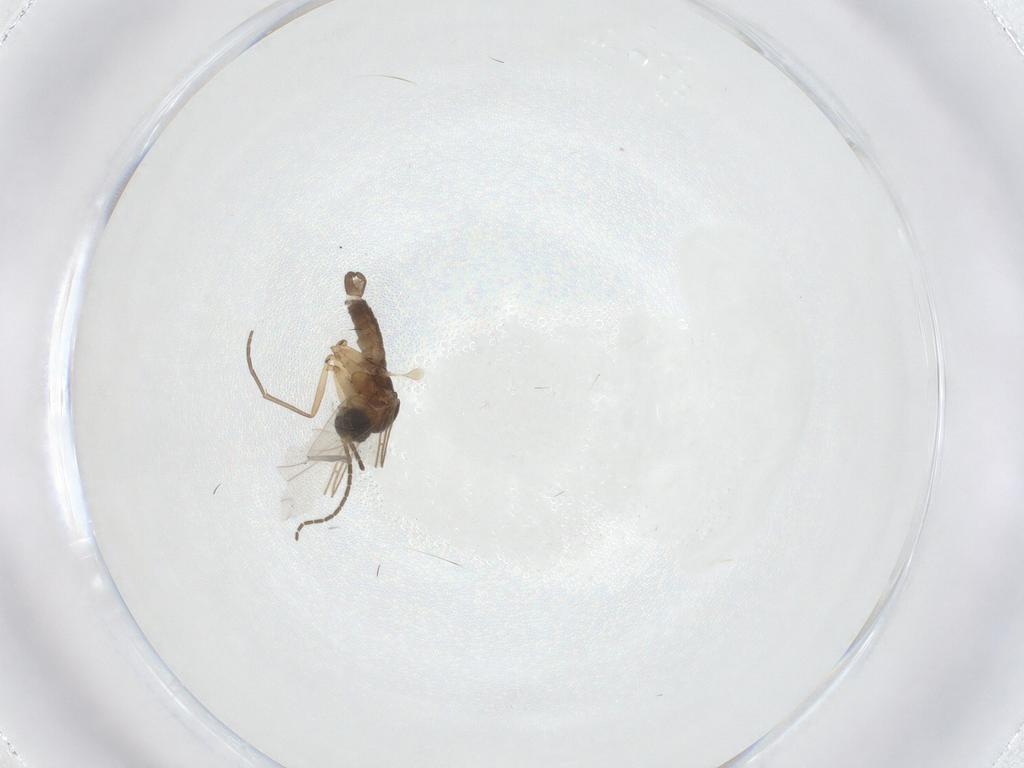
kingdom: Animalia
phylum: Arthropoda
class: Insecta
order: Diptera
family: Sciaridae
